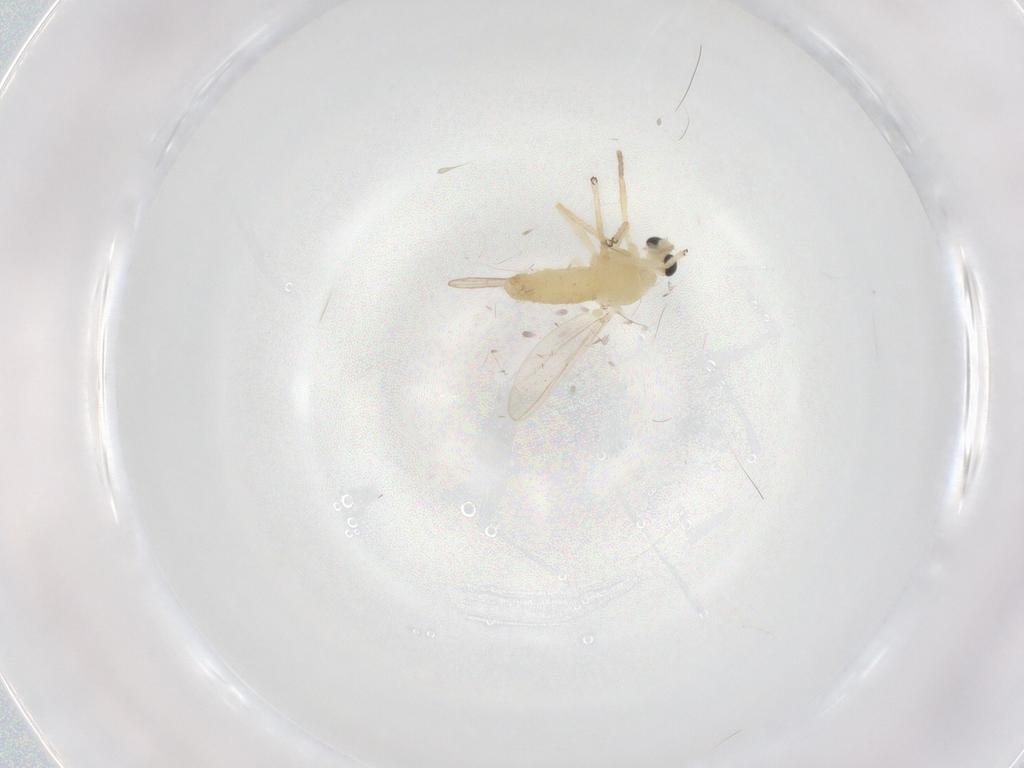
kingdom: Animalia
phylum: Arthropoda
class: Insecta
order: Diptera
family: Chironomidae
